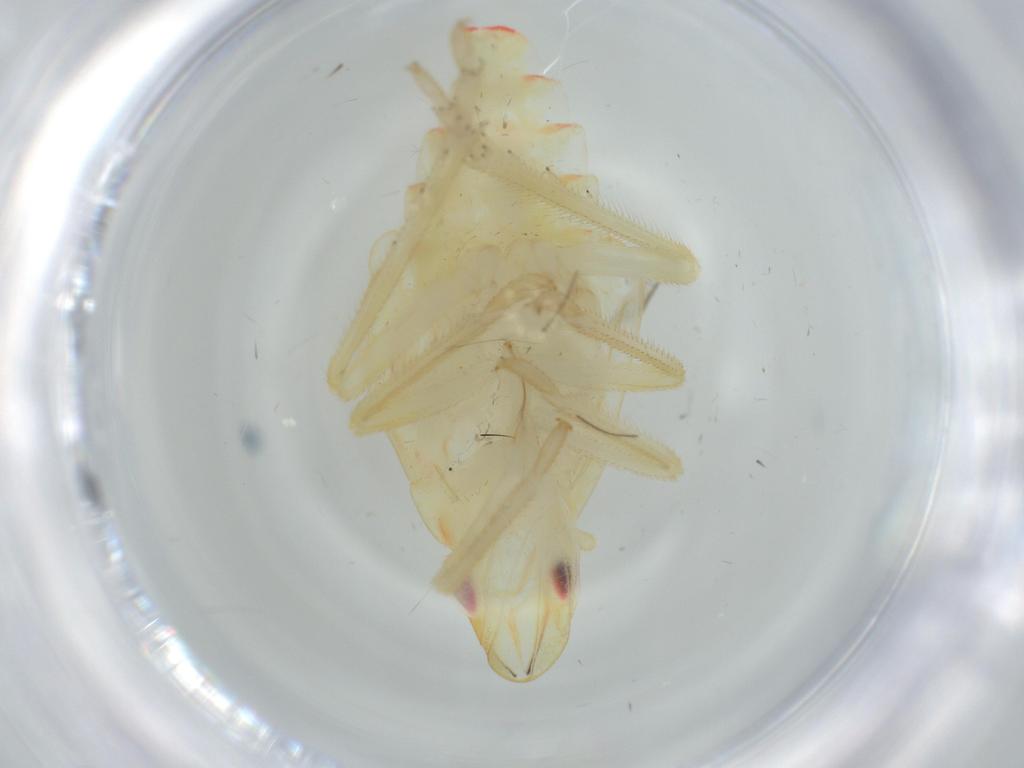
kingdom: Animalia
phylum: Arthropoda
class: Insecta
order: Hemiptera
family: Tropiduchidae
